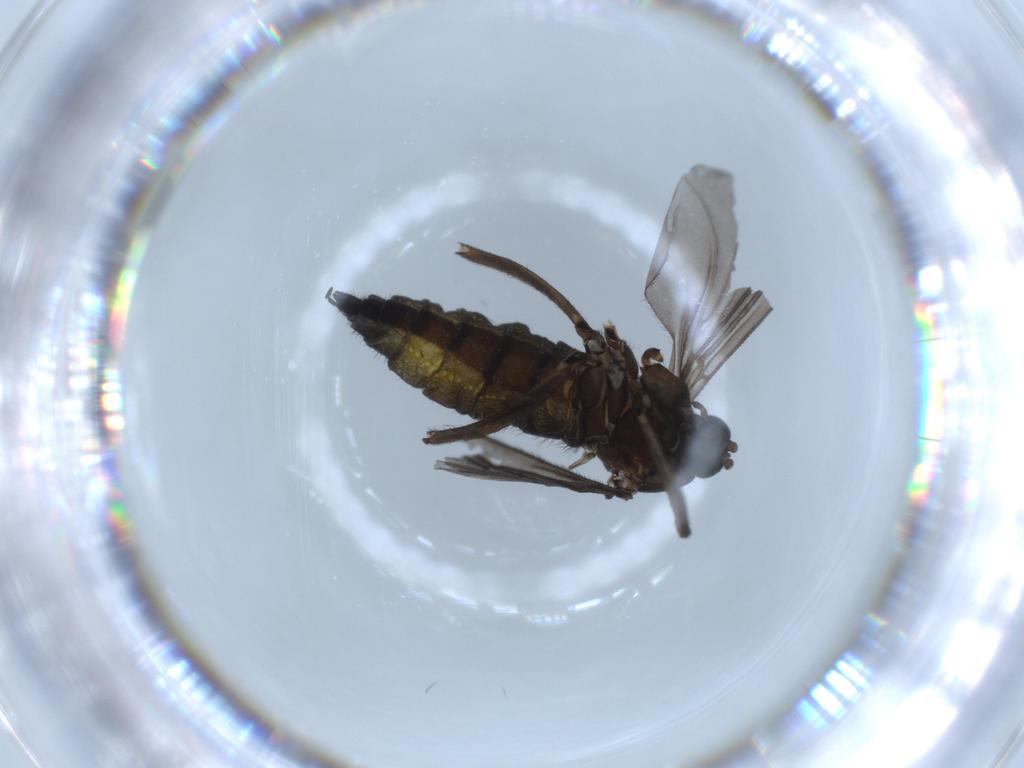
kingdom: Animalia
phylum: Arthropoda
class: Insecta
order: Diptera
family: Sciaridae
